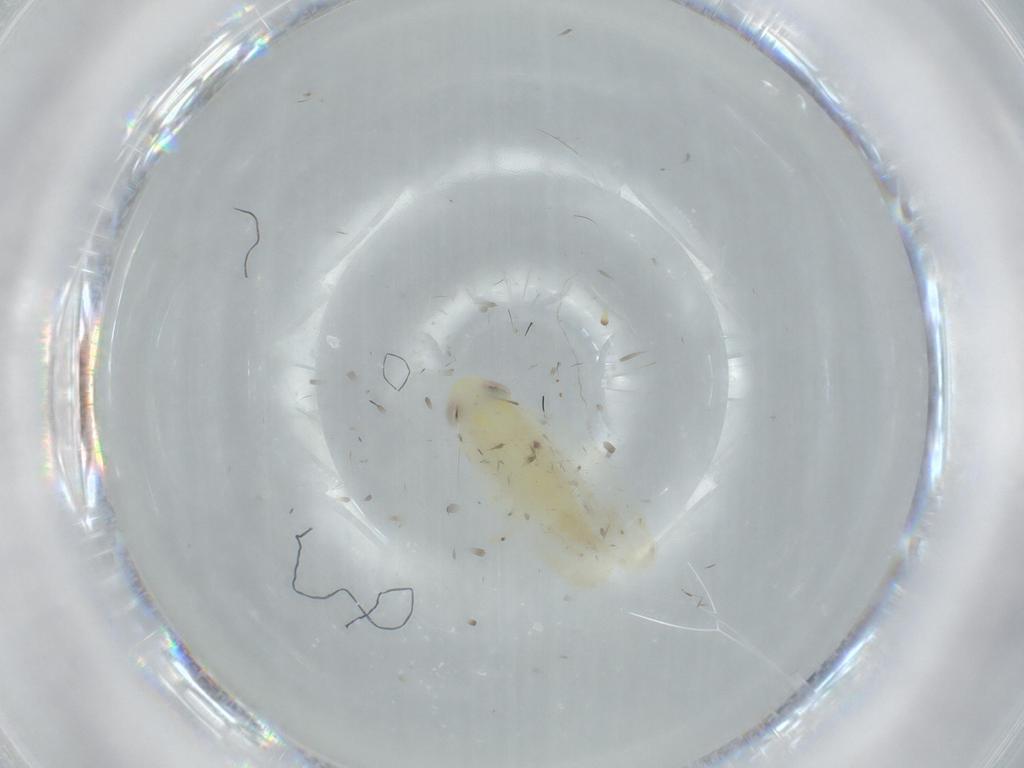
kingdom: Animalia
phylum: Arthropoda
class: Insecta
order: Hemiptera
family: Cicadellidae
